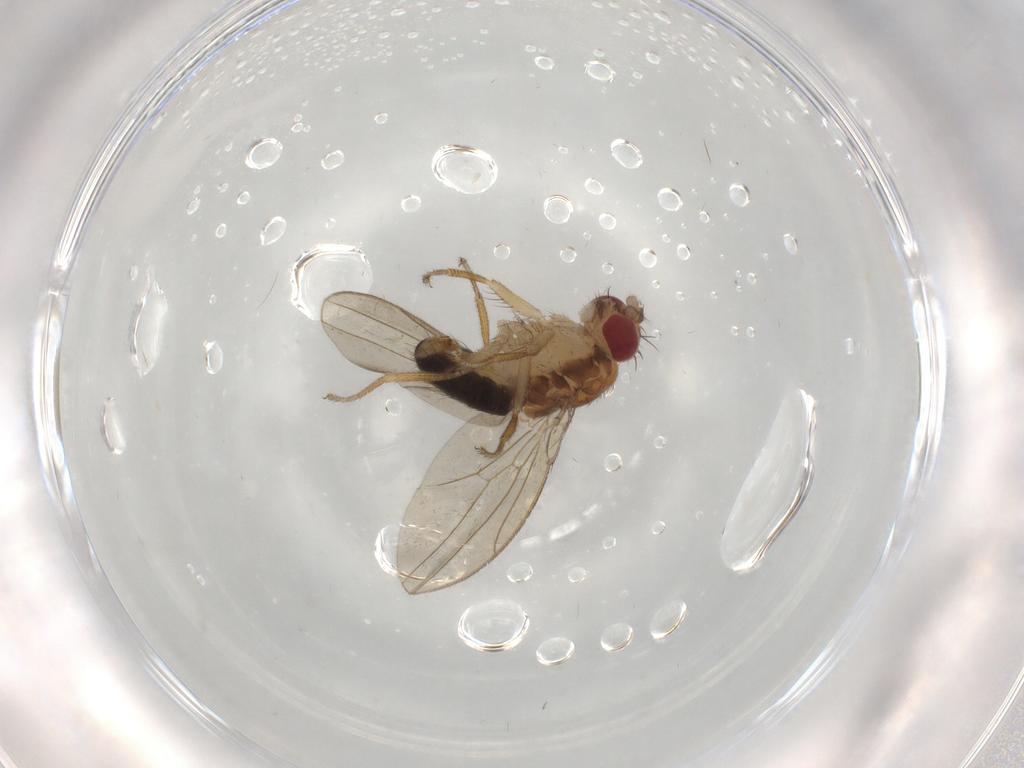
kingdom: Animalia
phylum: Arthropoda
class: Insecta
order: Diptera
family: Drosophilidae
